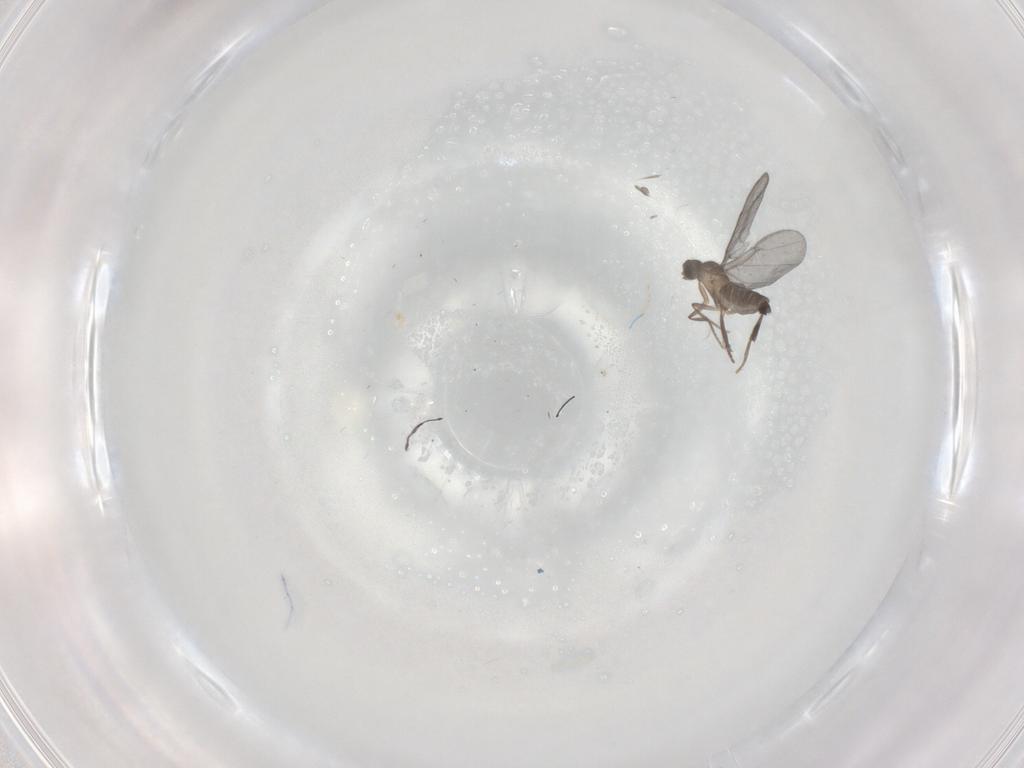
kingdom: Animalia
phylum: Arthropoda
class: Insecta
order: Diptera
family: Phoridae
